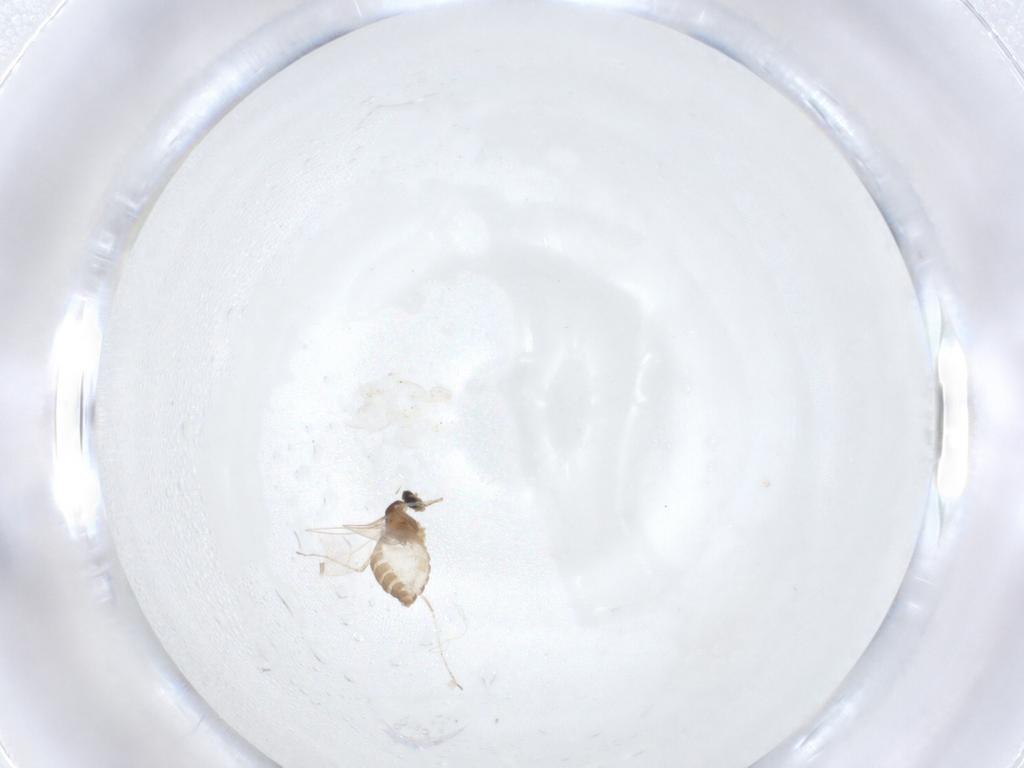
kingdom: Animalia
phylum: Arthropoda
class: Insecta
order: Diptera
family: Cecidomyiidae
